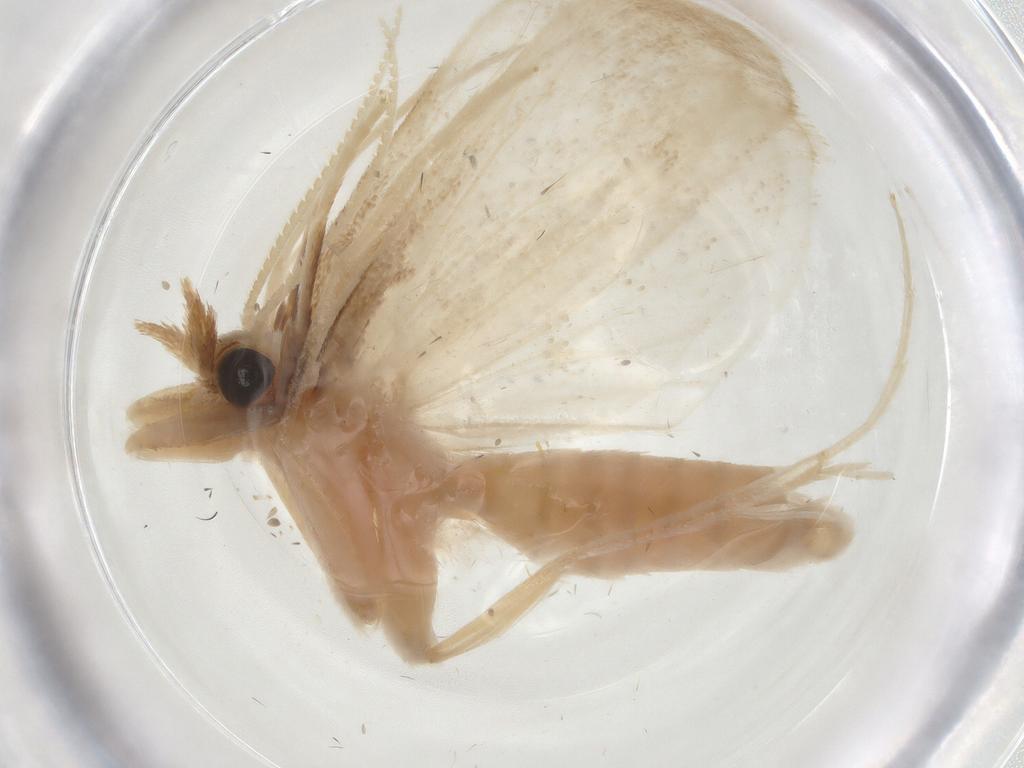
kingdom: Animalia
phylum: Arthropoda
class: Insecta
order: Lepidoptera
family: Crambidae
